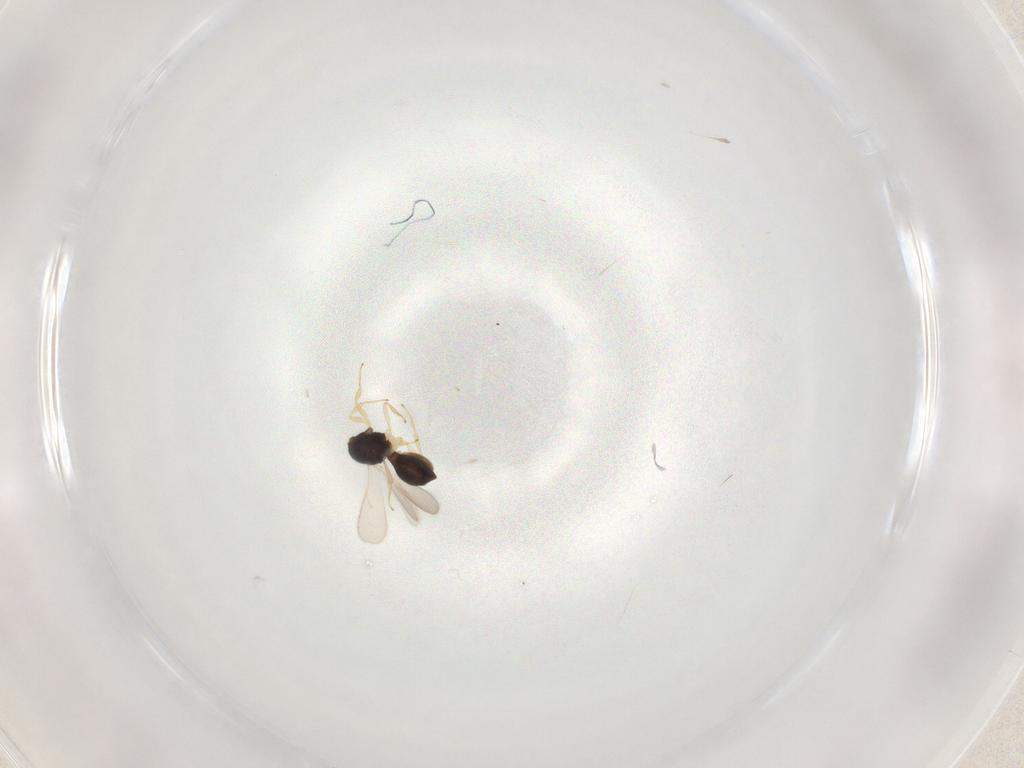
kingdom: Animalia
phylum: Arthropoda
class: Insecta
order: Hymenoptera
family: Scelionidae
